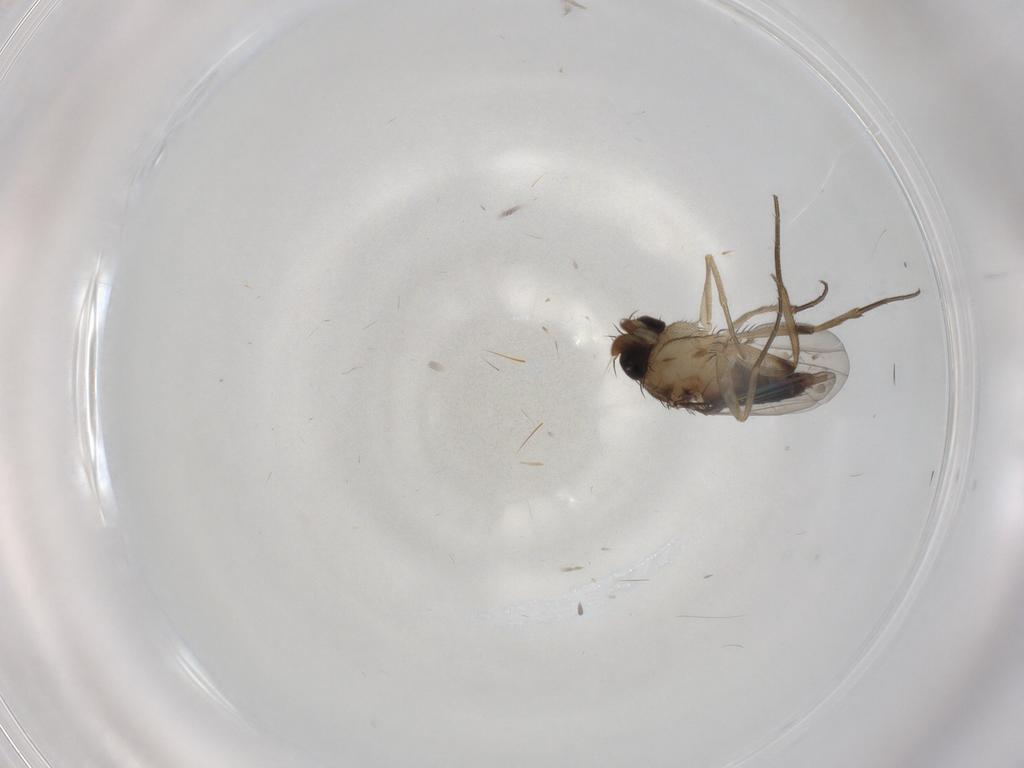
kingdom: Animalia
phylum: Arthropoda
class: Insecta
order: Diptera
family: Phoridae
